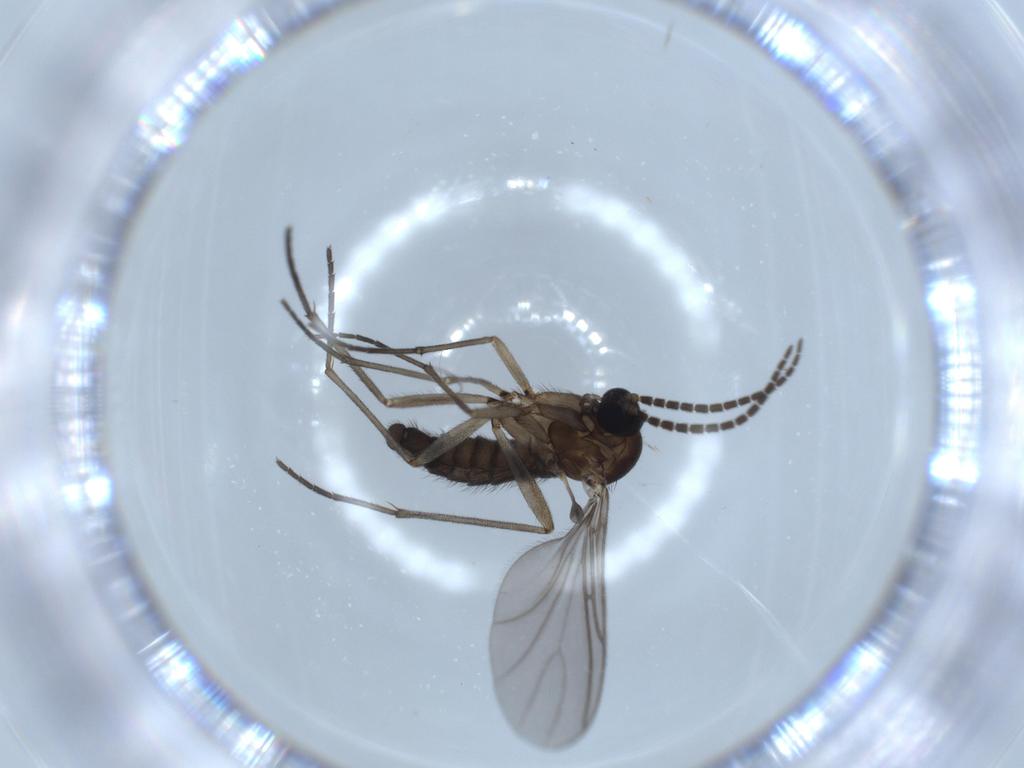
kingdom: Animalia
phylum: Arthropoda
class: Insecta
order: Diptera
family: Sciaridae
